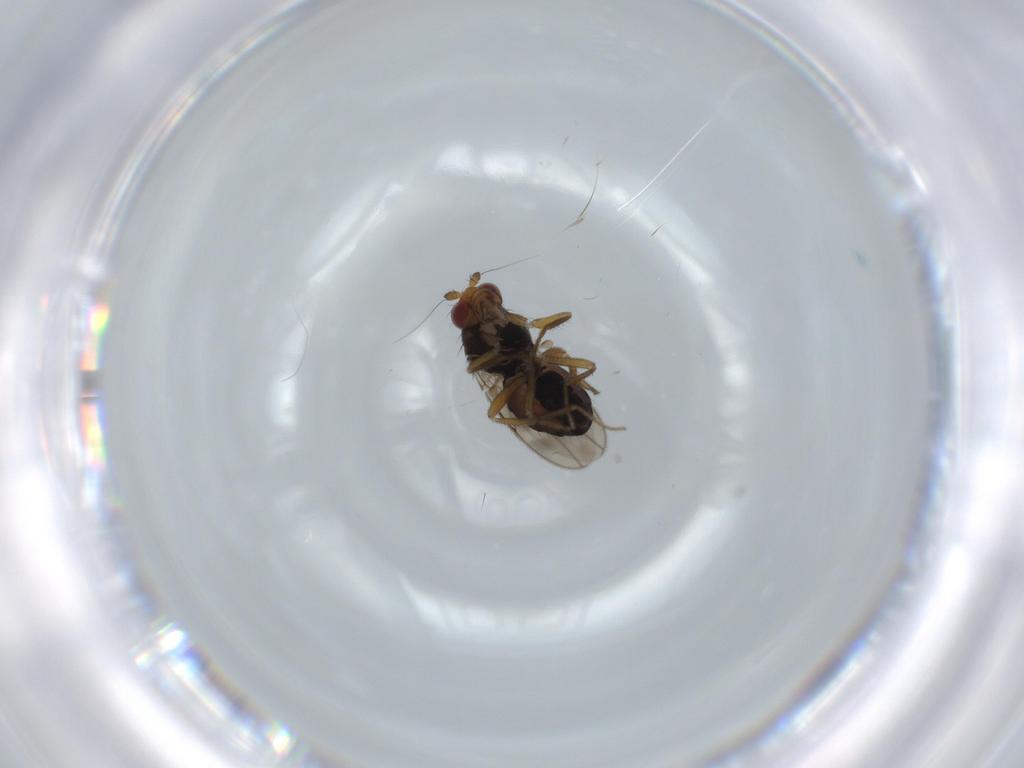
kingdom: Animalia
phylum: Arthropoda
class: Insecta
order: Diptera
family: Sphaeroceridae
